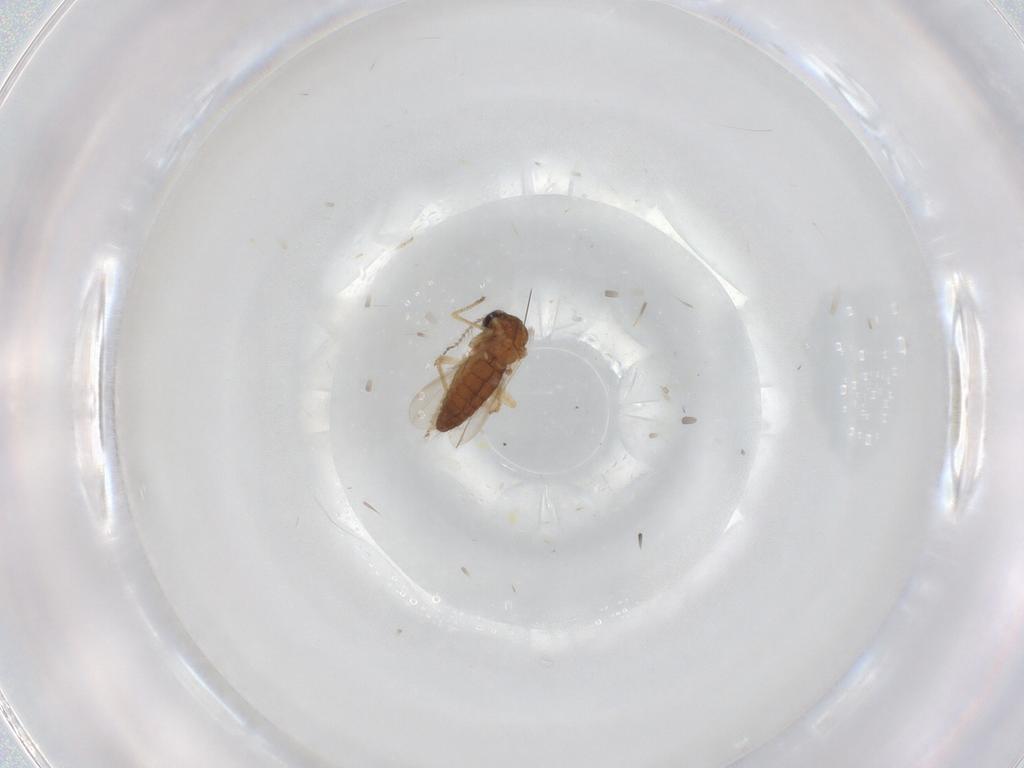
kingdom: Animalia
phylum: Arthropoda
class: Insecta
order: Diptera
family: Ceratopogonidae
